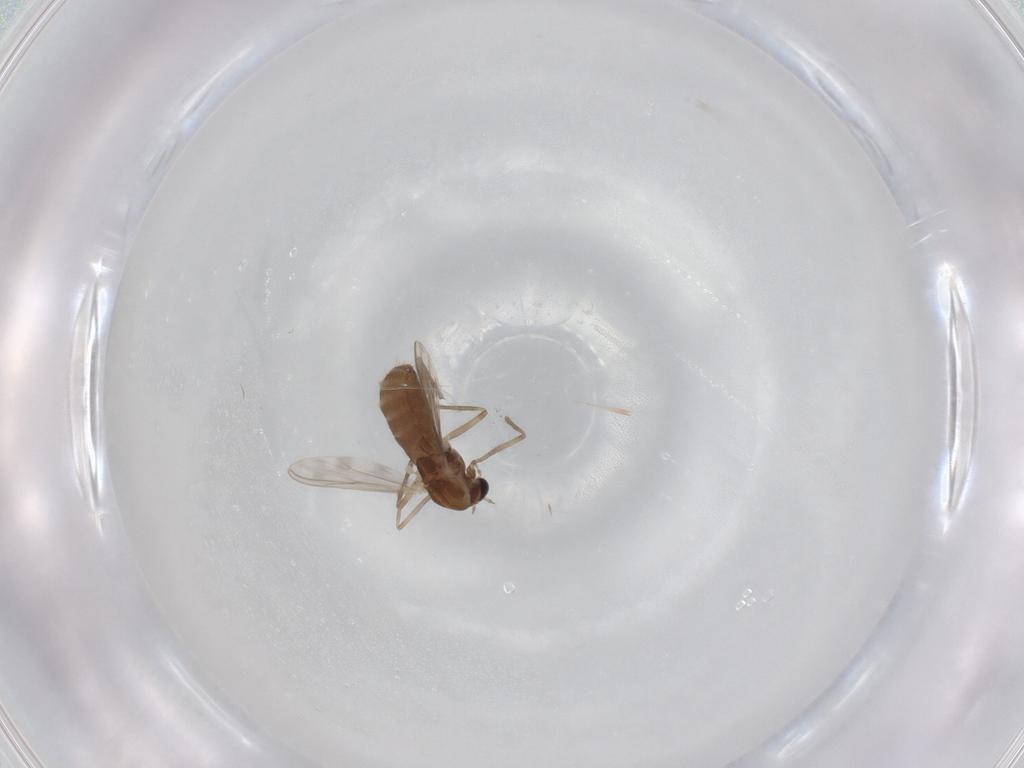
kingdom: Animalia
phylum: Arthropoda
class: Insecta
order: Diptera
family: Chironomidae
